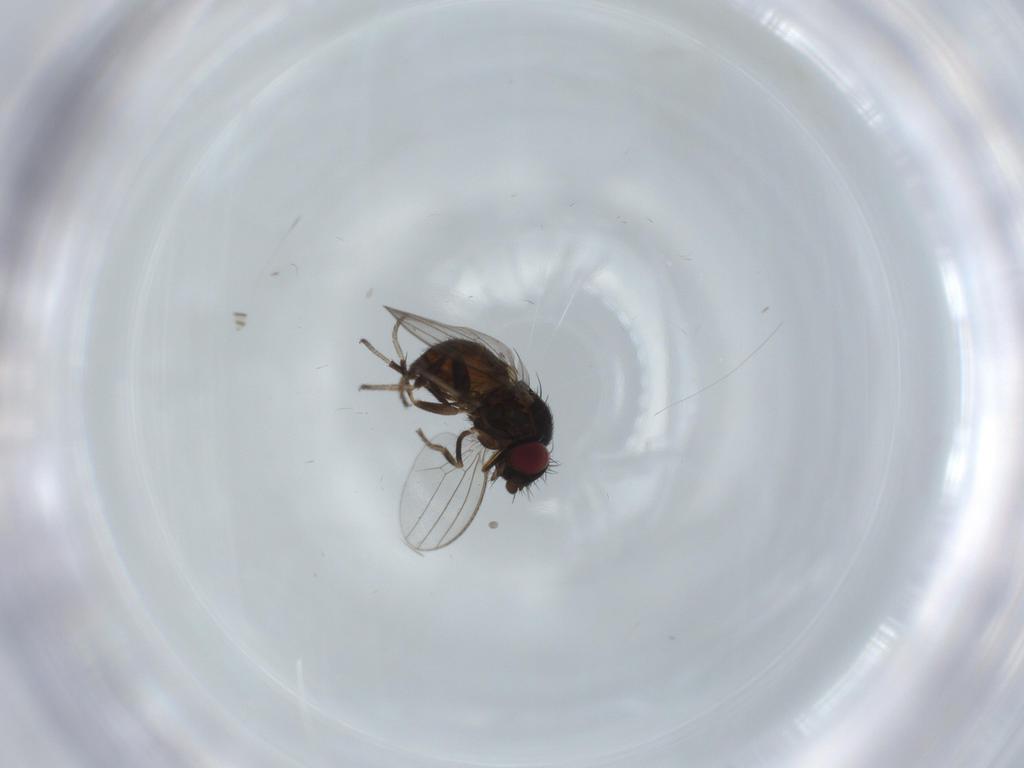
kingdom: Animalia
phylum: Arthropoda
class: Insecta
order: Diptera
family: Milichiidae
